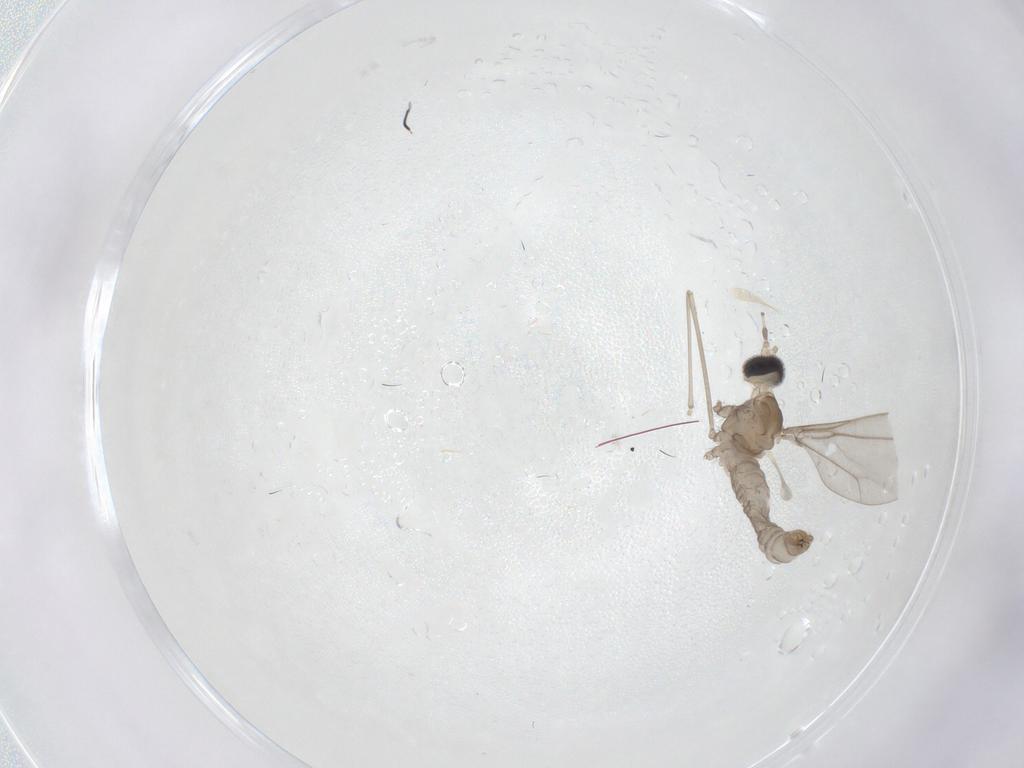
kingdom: Animalia
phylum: Arthropoda
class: Insecta
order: Diptera
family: Cecidomyiidae
